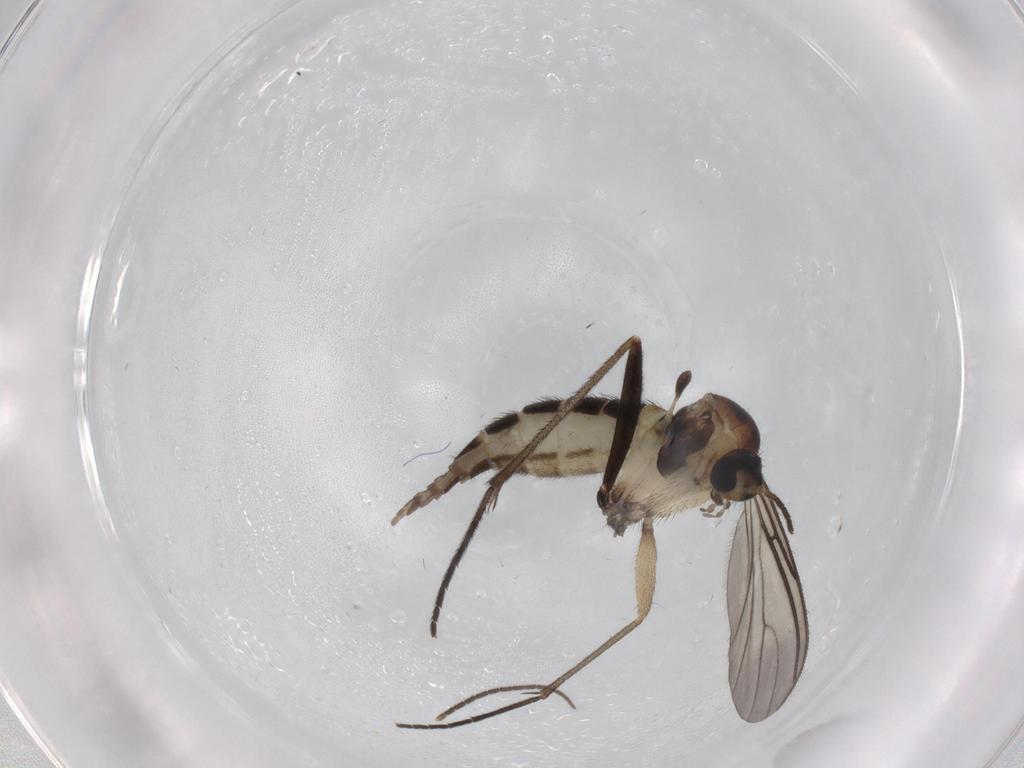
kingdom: Animalia
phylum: Arthropoda
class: Insecta
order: Diptera
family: Sciaridae
